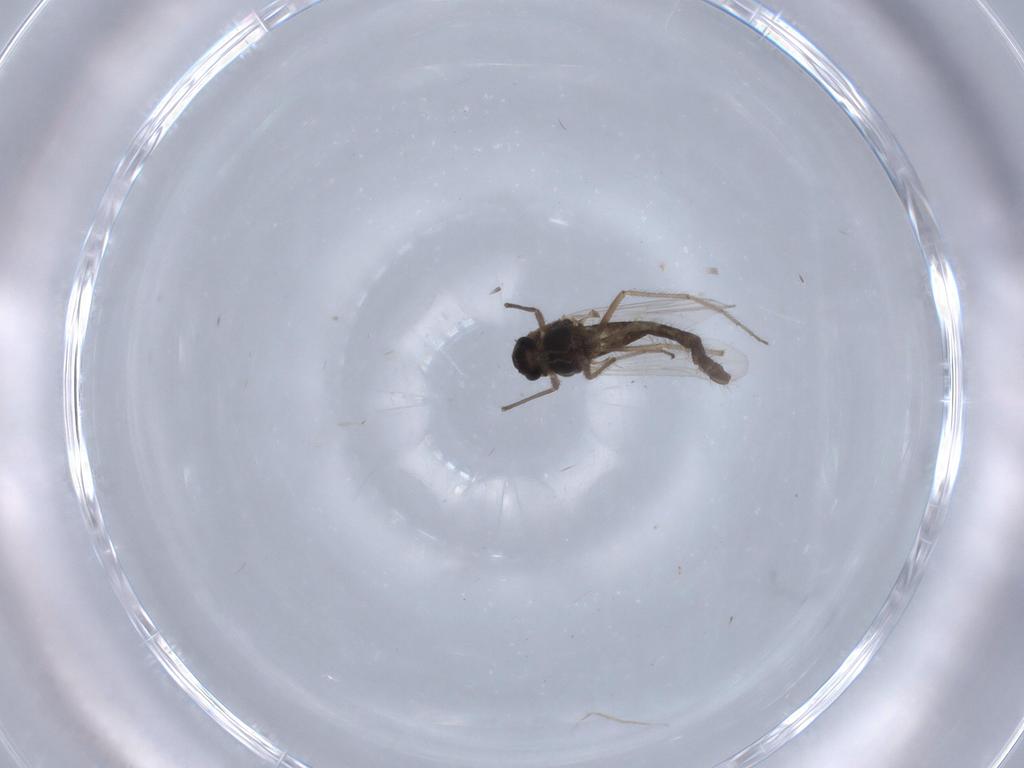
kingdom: Animalia
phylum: Arthropoda
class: Insecta
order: Diptera
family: Chironomidae
